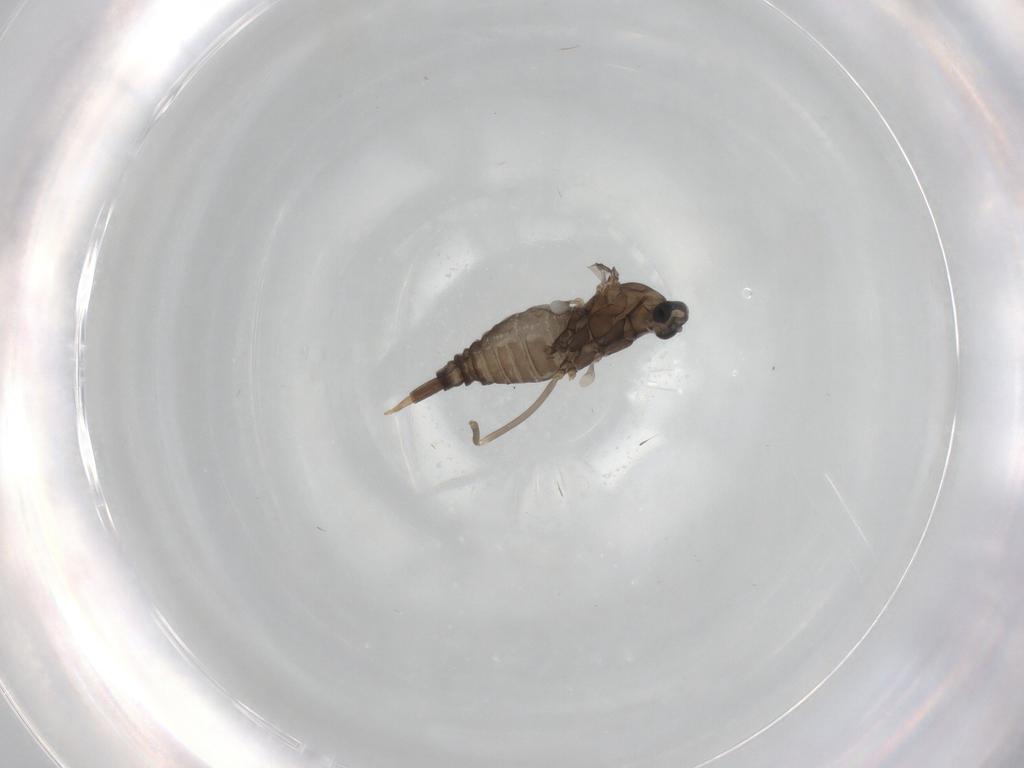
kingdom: Animalia
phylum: Arthropoda
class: Insecta
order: Diptera
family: Cecidomyiidae
